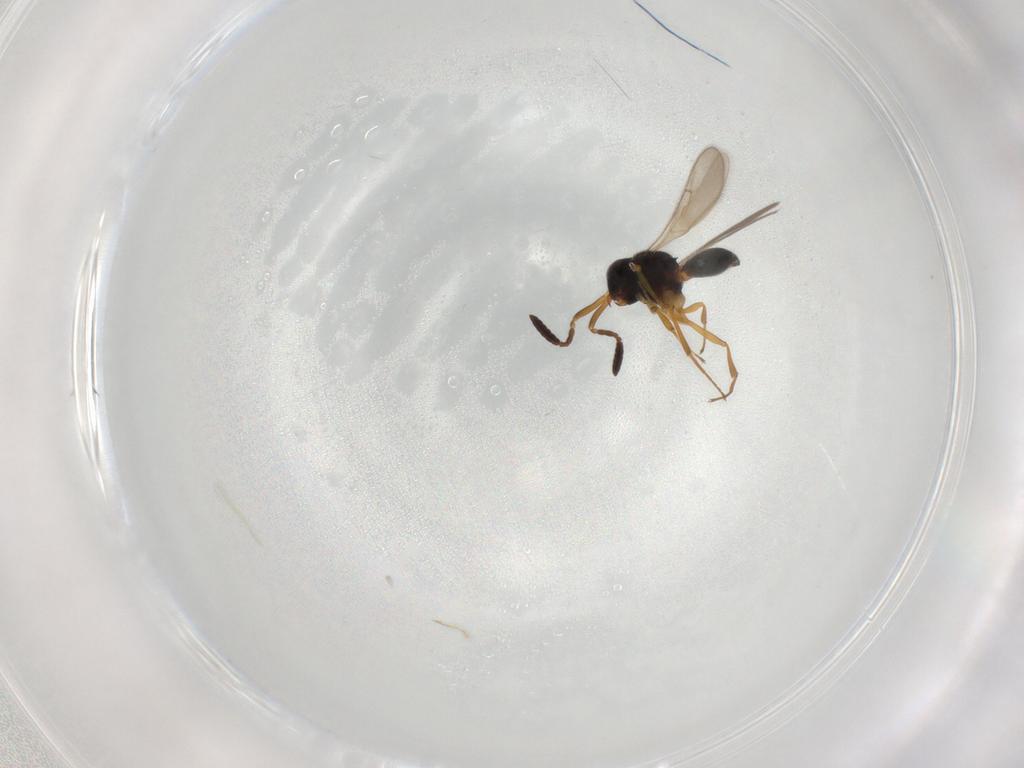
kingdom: Animalia
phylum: Arthropoda
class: Insecta
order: Hymenoptera
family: Scelionidae
